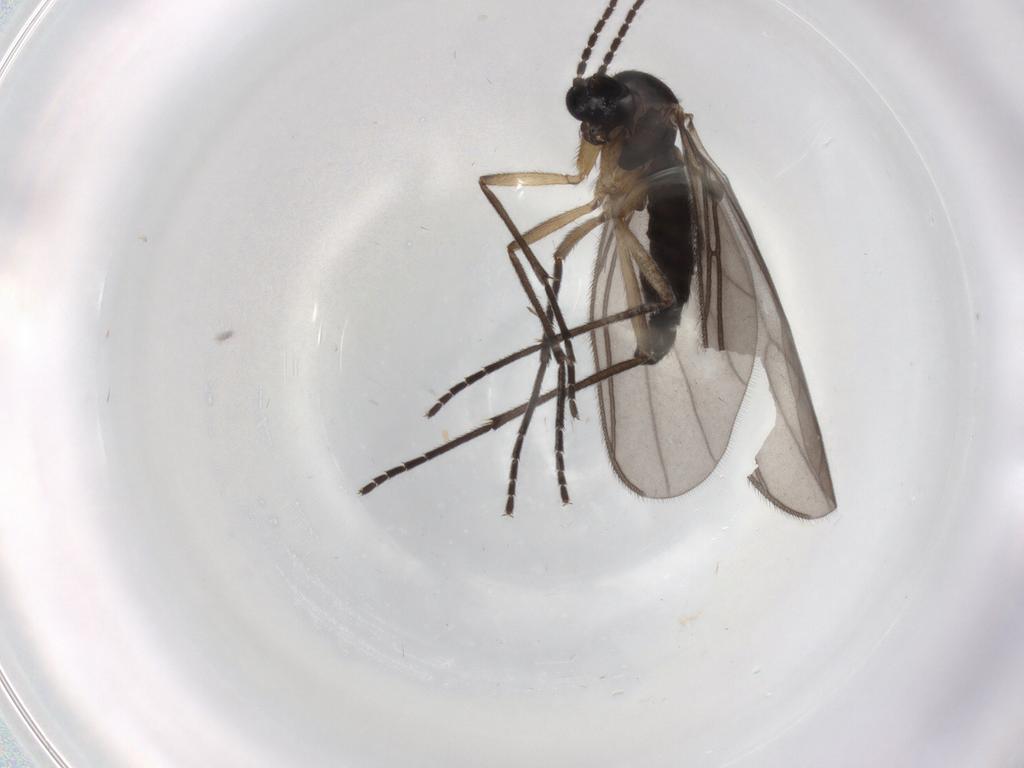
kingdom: Animalia
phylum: Arthropoda
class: Insecta
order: Diptera
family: Sciaridae
